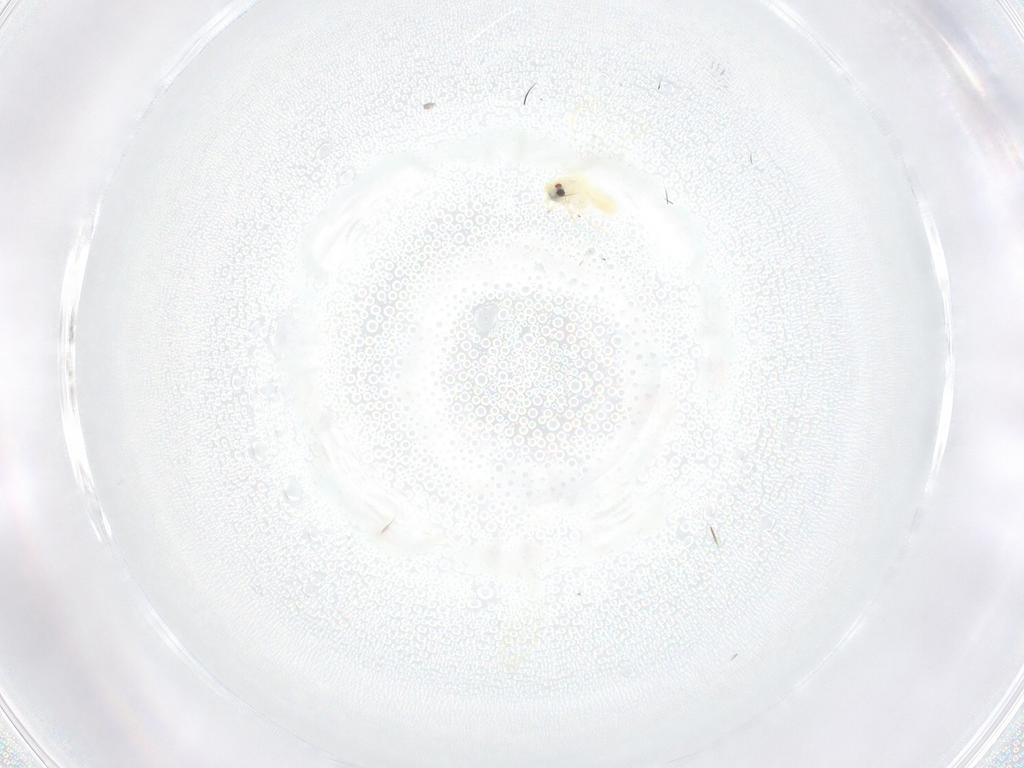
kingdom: Animalia
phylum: Arthropoda
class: Insecta
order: Hemiptera
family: Aleyrodidae
